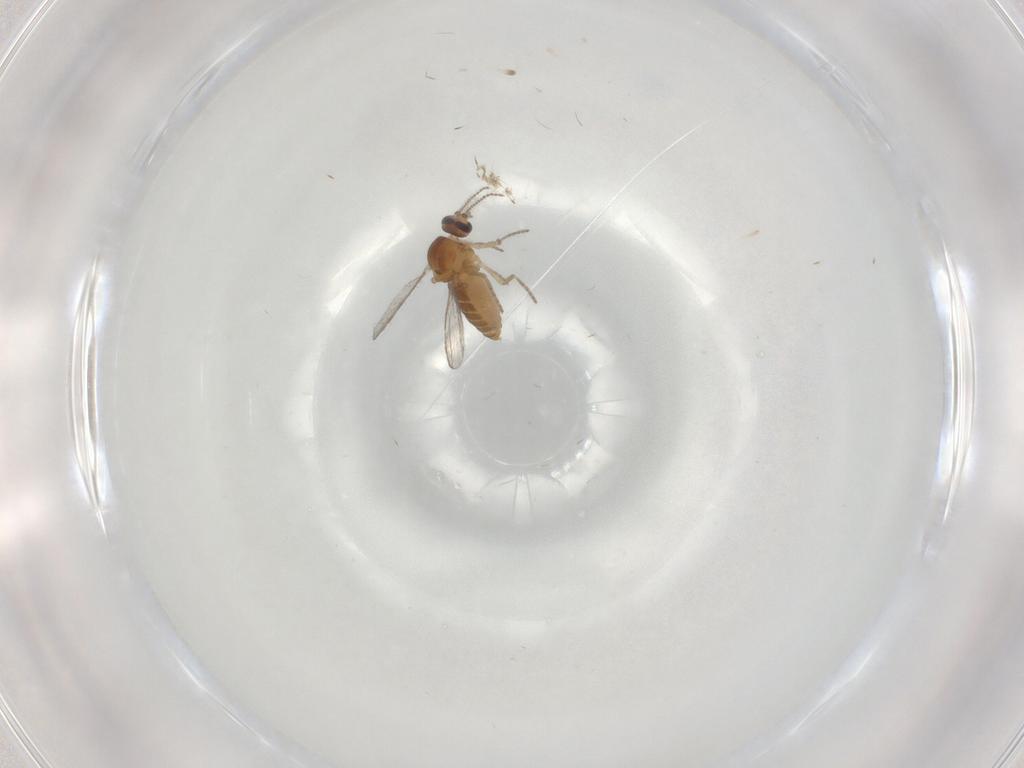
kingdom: Animalia
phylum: Arthropoda
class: Insecta
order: Diptera
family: Ceratopogonidae
